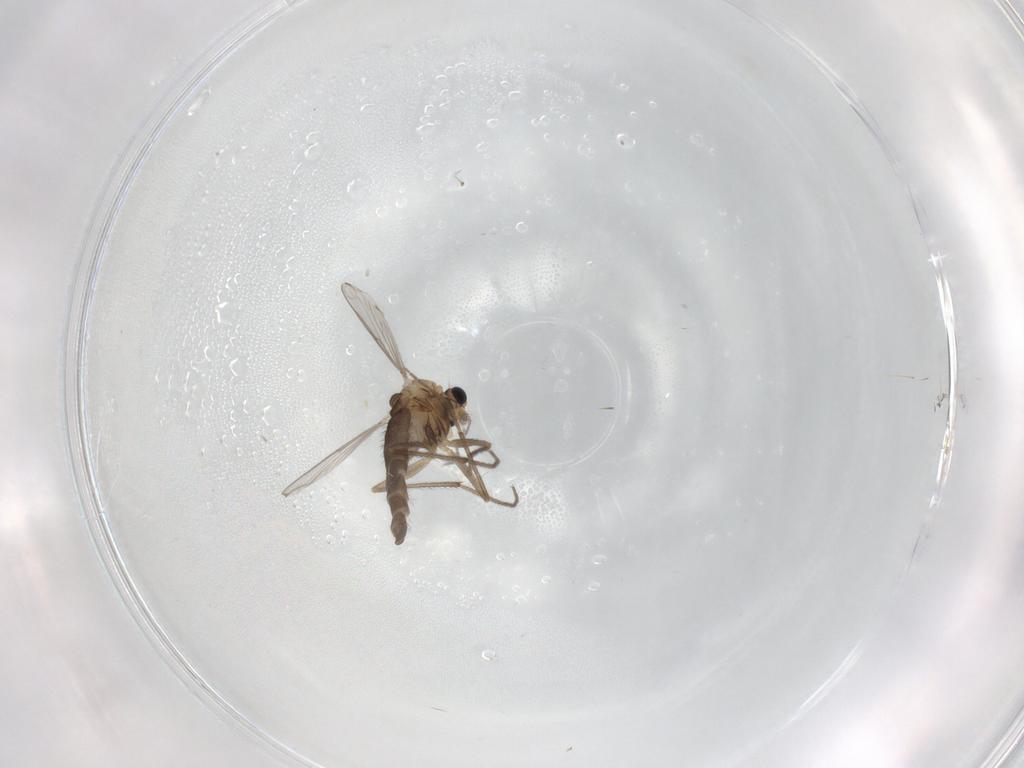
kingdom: Animalia
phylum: Arthropoda
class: Insecta
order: Diptera
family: Chironomidae
